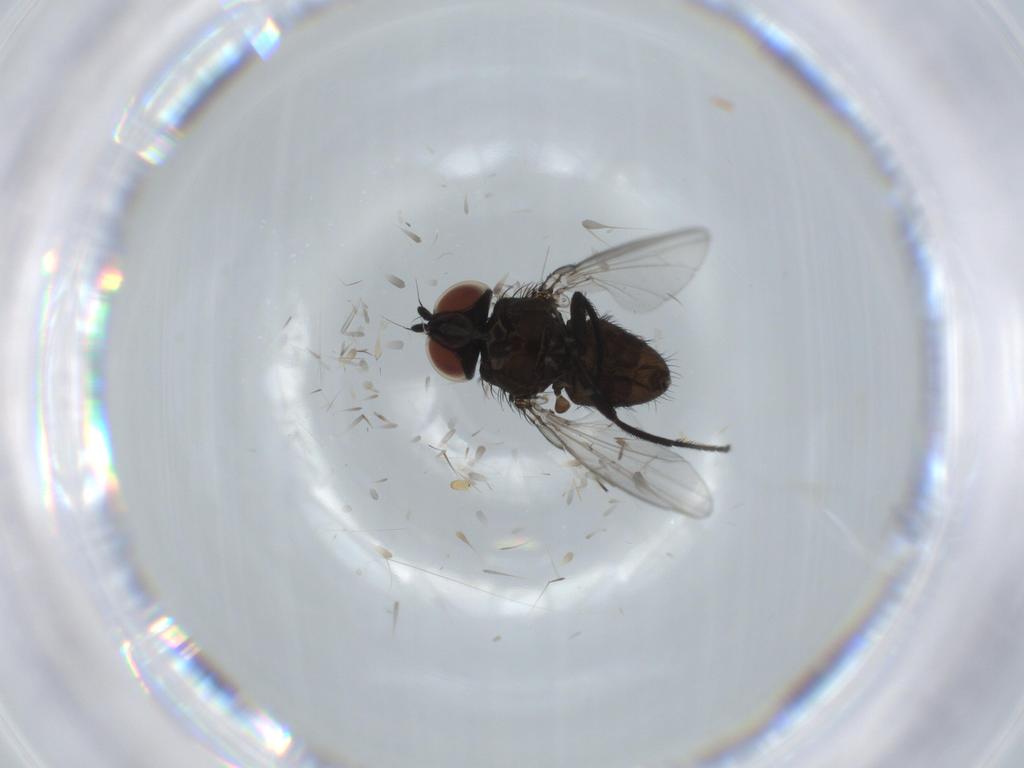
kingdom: Animalia
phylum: Arthropoda
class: Insecta
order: Diptera
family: Milichiidae
